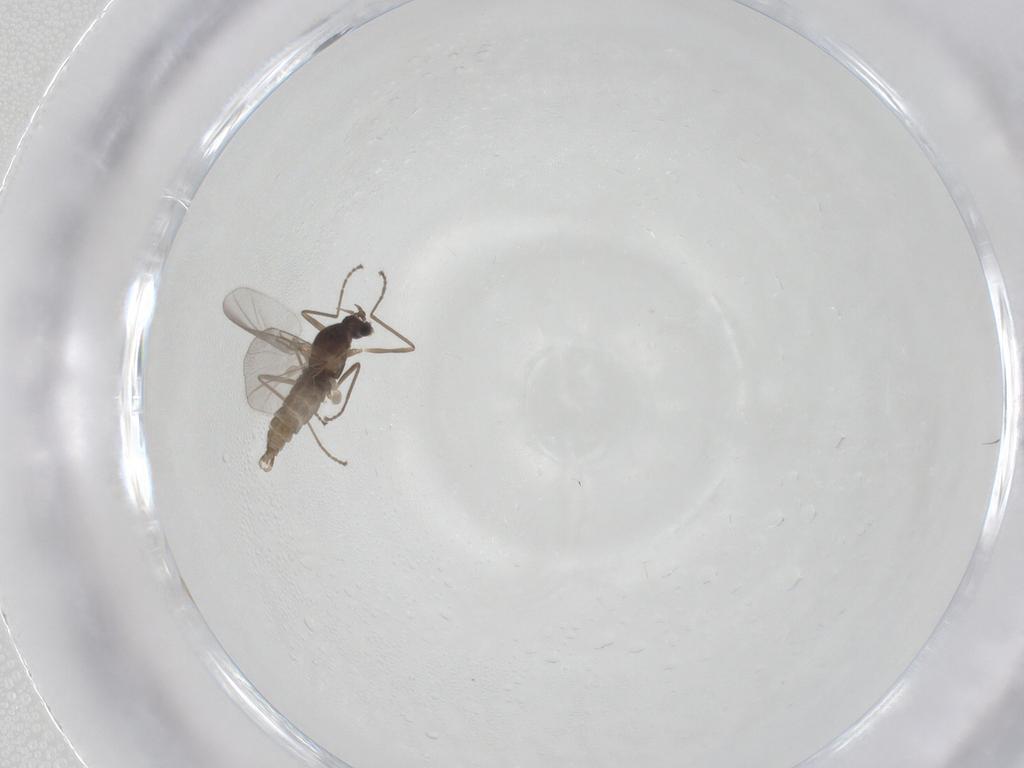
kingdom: Animalia
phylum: Arthropoda
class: Insecta
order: Diptera
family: Cecidomyiidae
